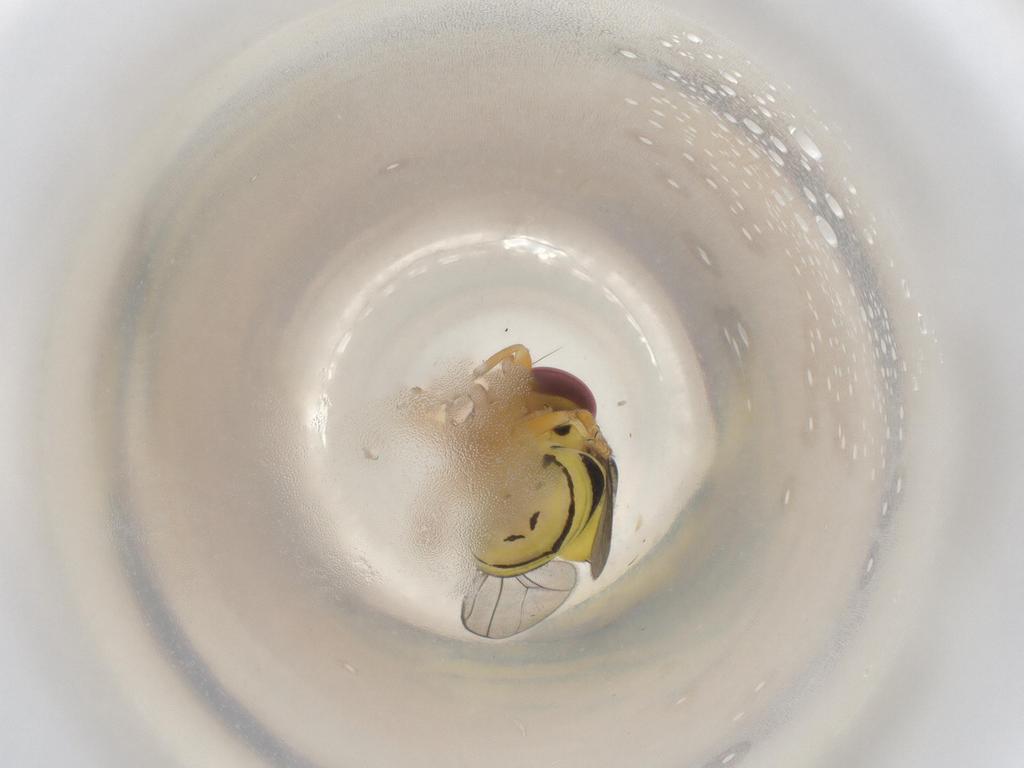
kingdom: Animalia
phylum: Arthropoda
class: Insecta
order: Diptera
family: Chloropidae
